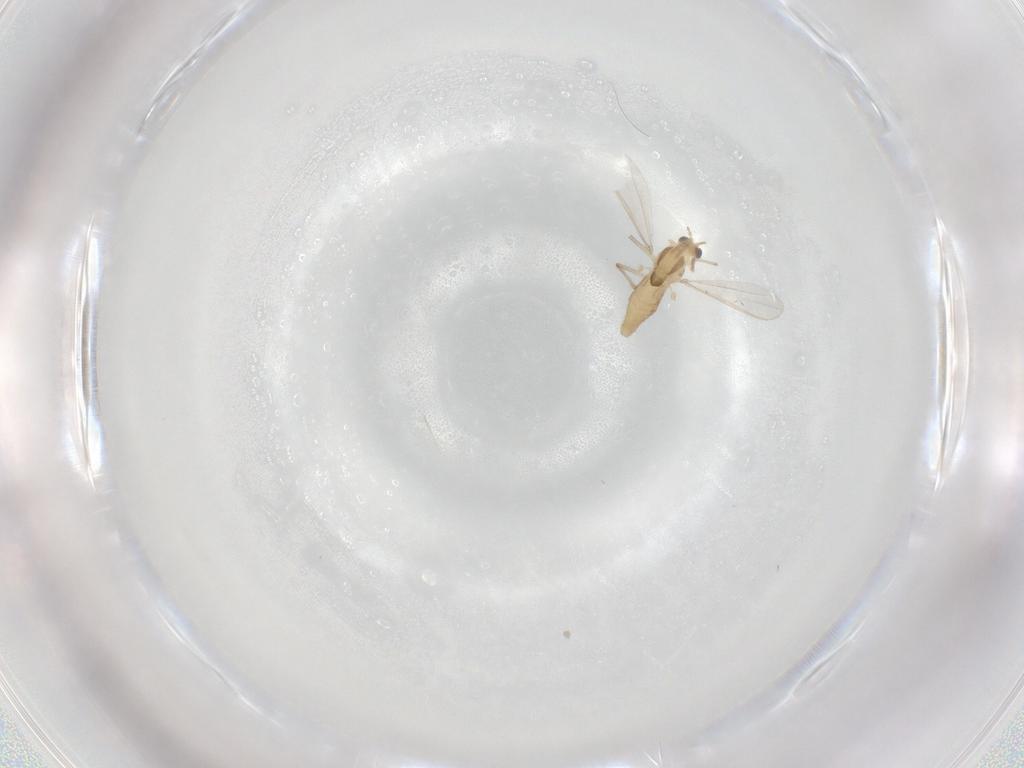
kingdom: Animalia
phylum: Arthropoda
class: Insecta
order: Diptera
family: Chironomidae
